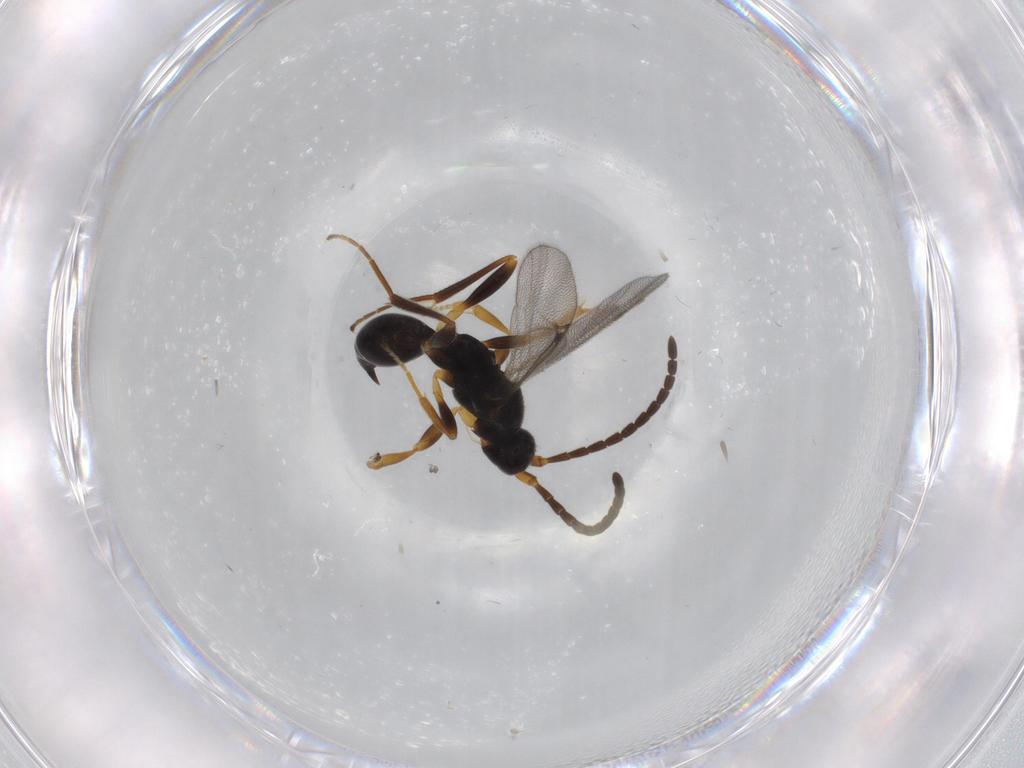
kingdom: Animalia
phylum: Arthropoda
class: Insecta
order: Hymenoptera
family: Proctotrupidae
